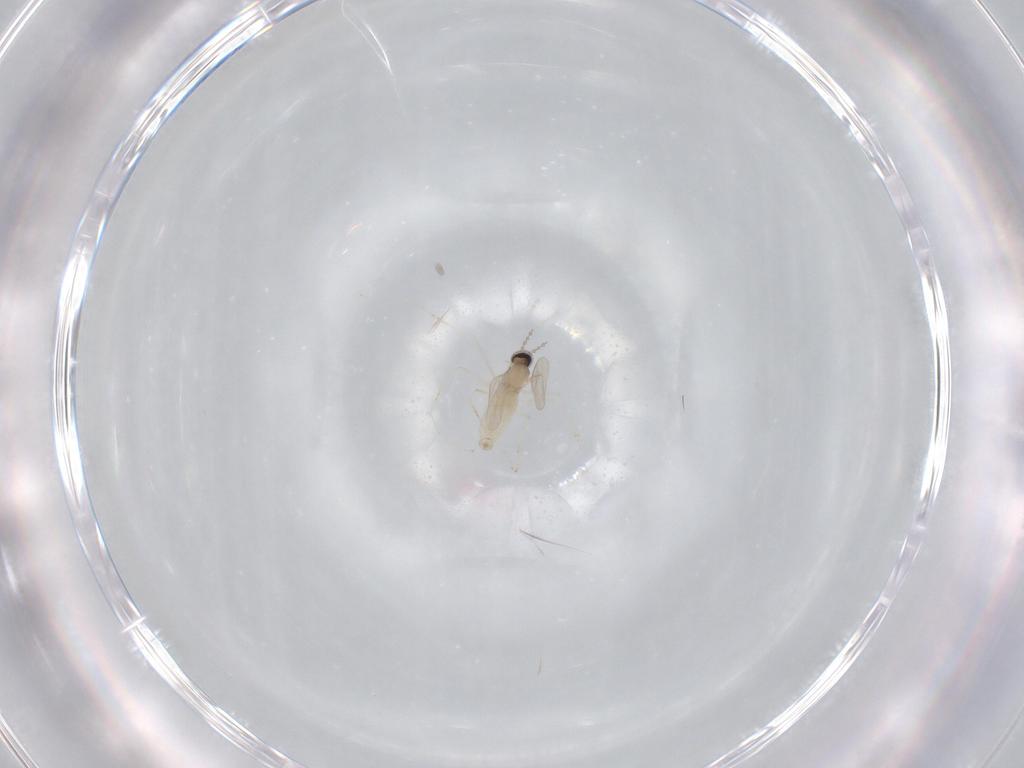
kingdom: Animalia
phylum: Arthropoda
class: Insecta
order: Diptera
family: Cecidomyiidae
